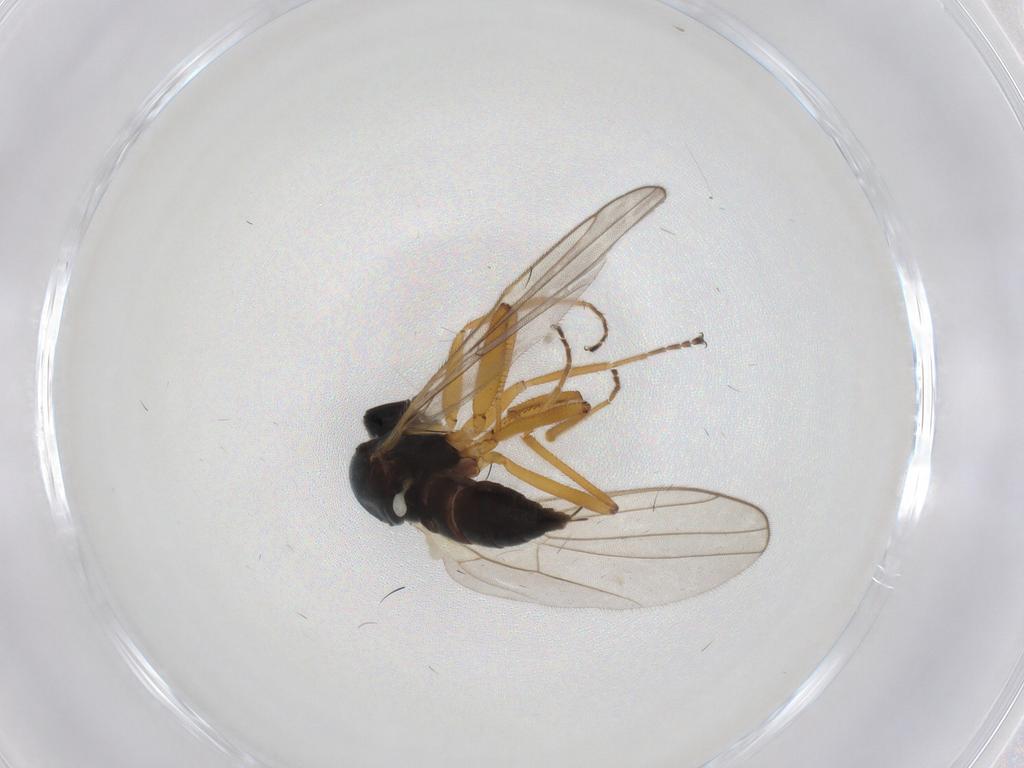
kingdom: Animalia
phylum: Arthropoda
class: Insecta
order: Diptera
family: Hybotidae
